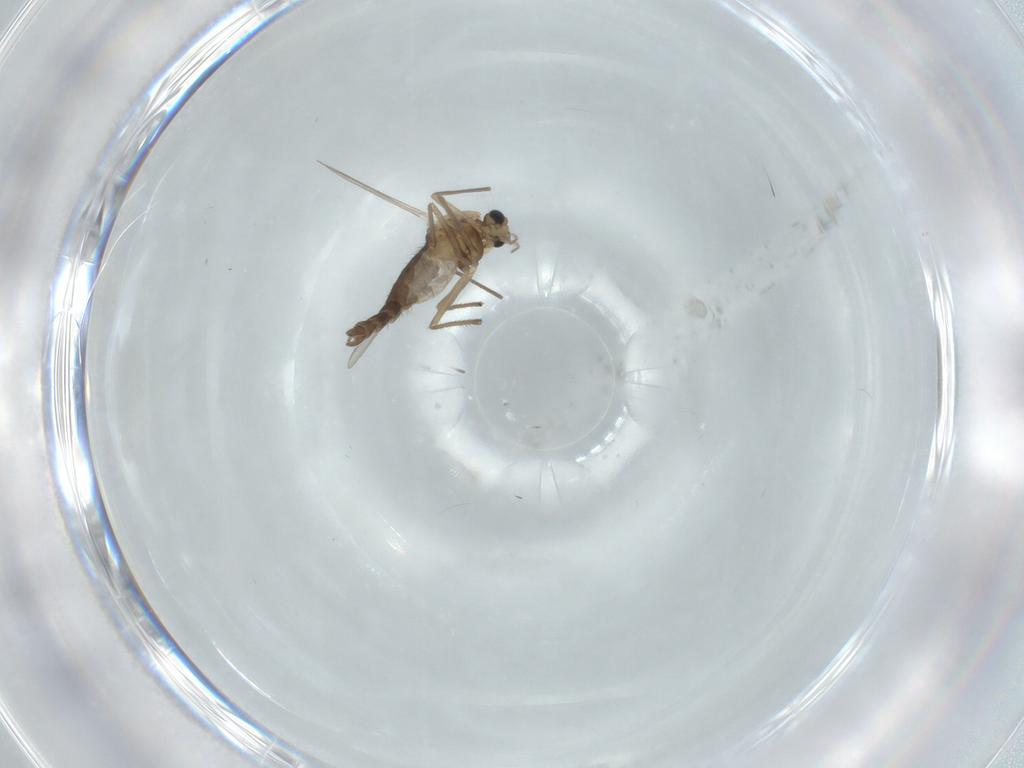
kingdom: Animalia
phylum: Arthropoda
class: Insecta
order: Diptera
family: Chironomidae
